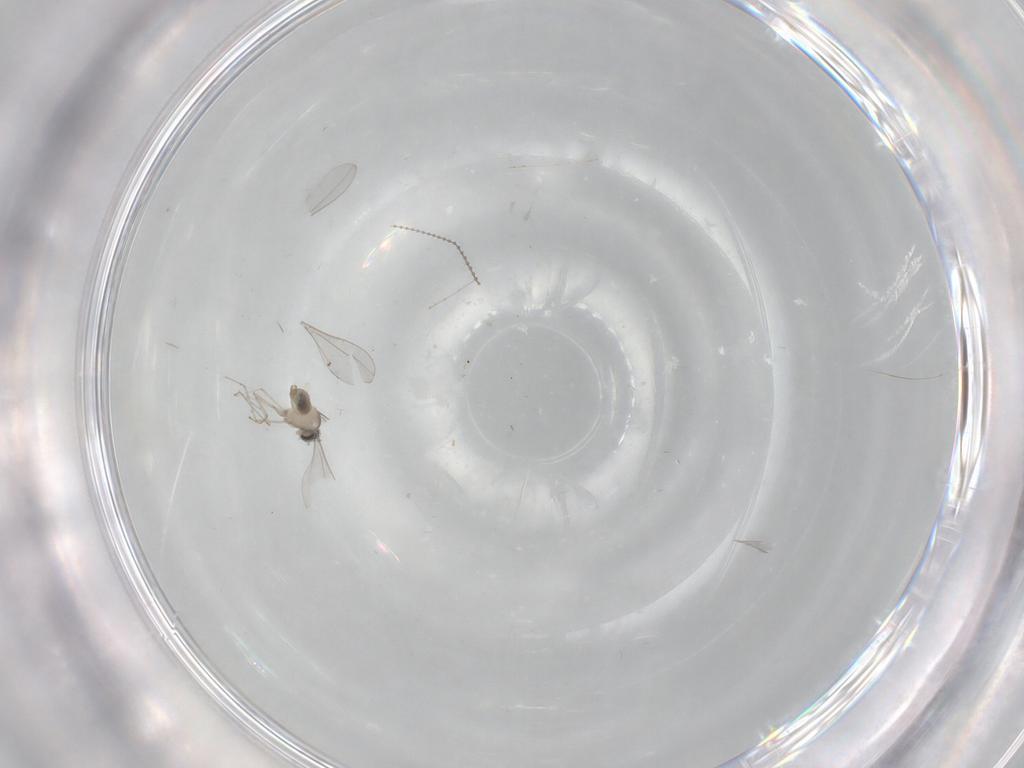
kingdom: Animalia
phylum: Arthropoda
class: Insecta
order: Diptera
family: Cecidomyiidae
